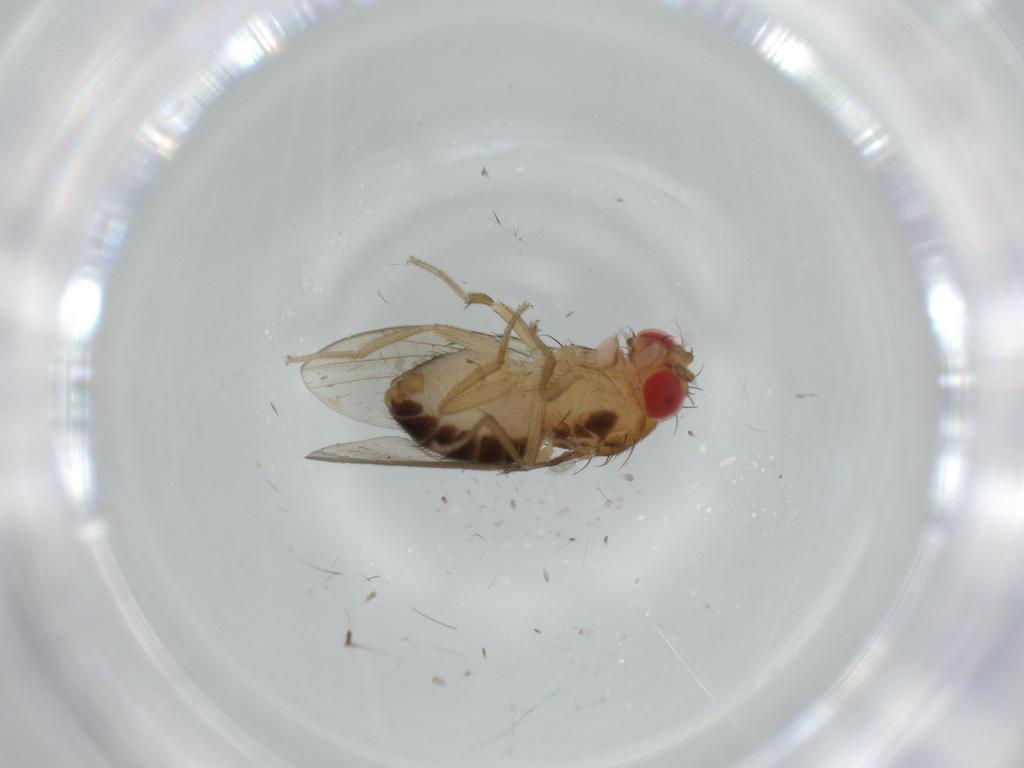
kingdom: Animalia
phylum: Arthropoda
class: Insecta
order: Diptera
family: Drosophilidae
